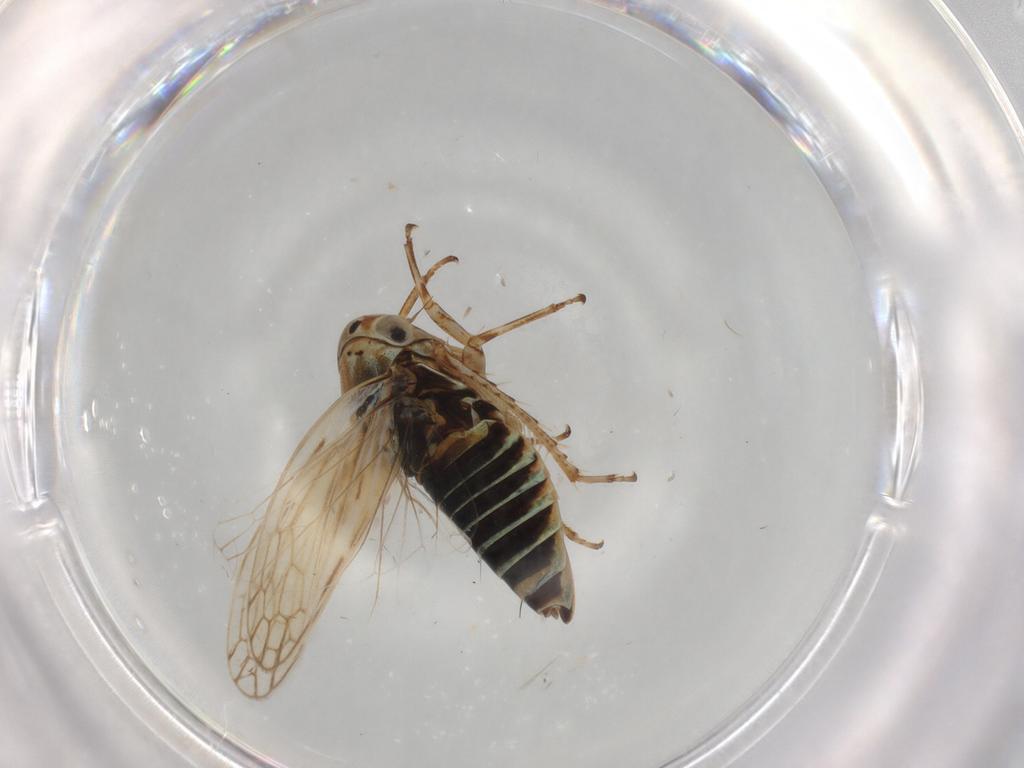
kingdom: Animalia
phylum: Arthropoda
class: Insecta
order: Hemiptera
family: Cicadellidae
